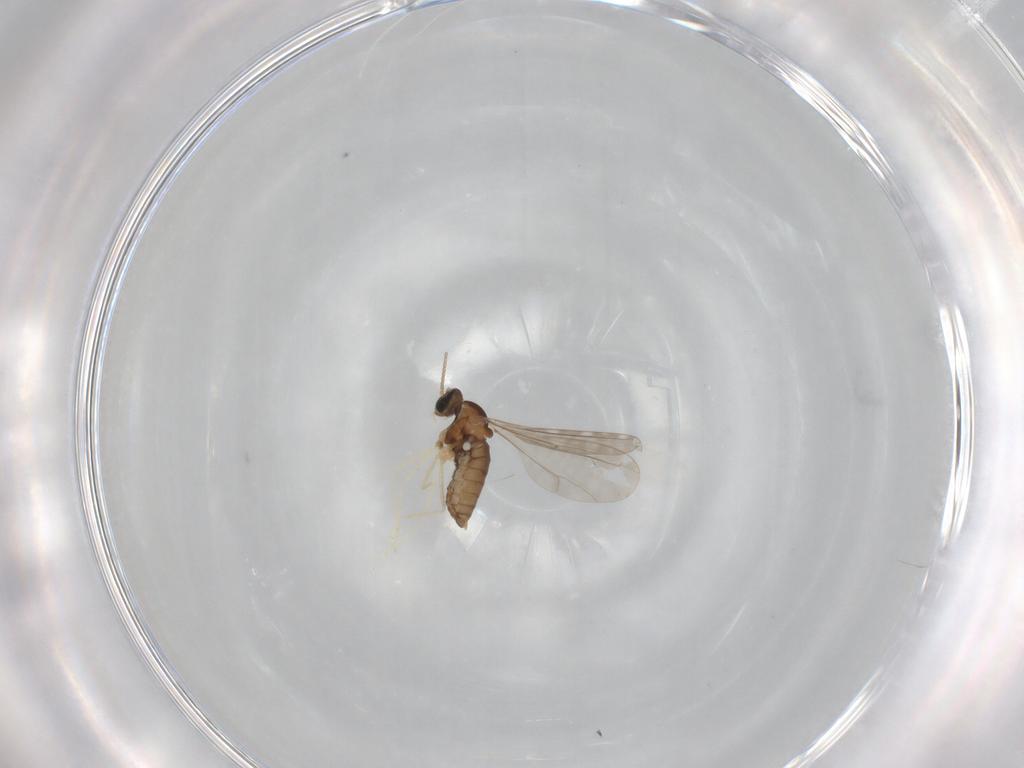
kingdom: Animalia
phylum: Arthropoda
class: Insecta
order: Diptera
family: Cecidomyiidae
